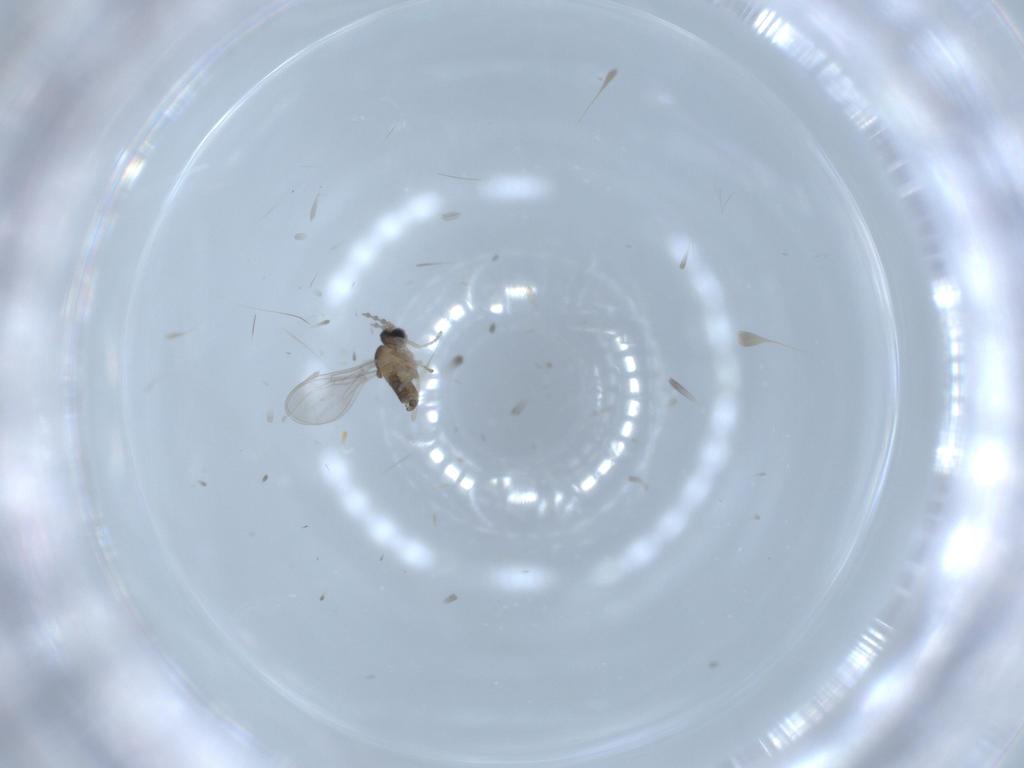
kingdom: Animalia
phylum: Arthropoda
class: Insecta
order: Diptera
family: Cecidomyiidae
